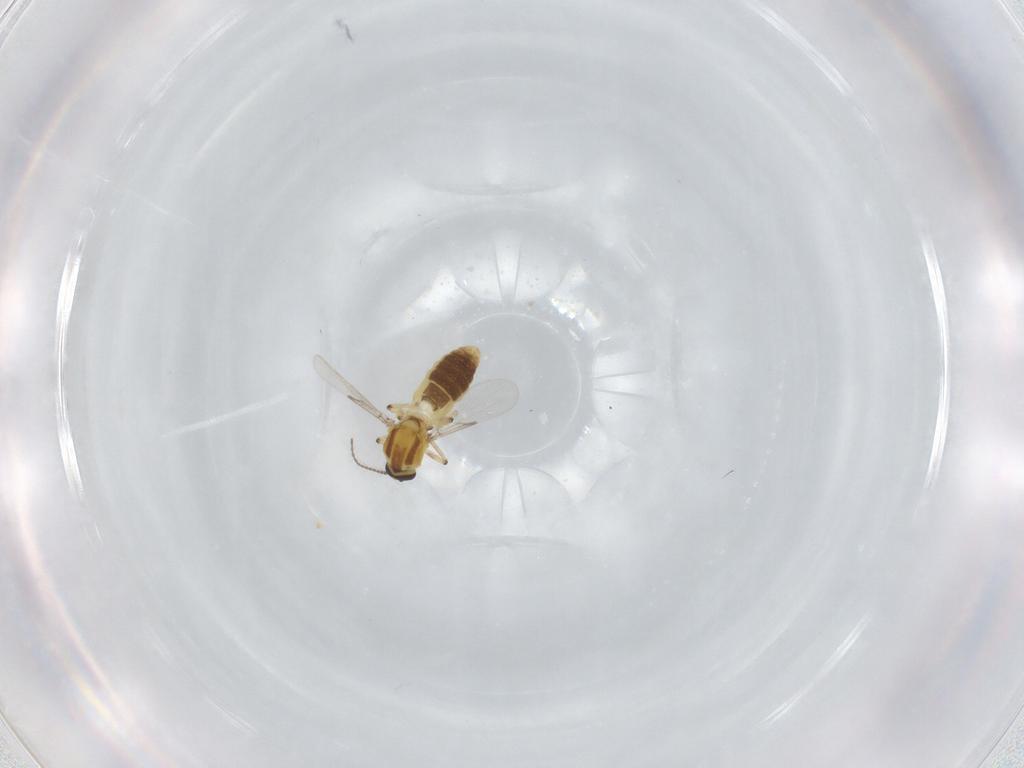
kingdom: Animalia
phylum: Arthropoda
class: Insecta
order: Diptera
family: Ceratopogonidae
